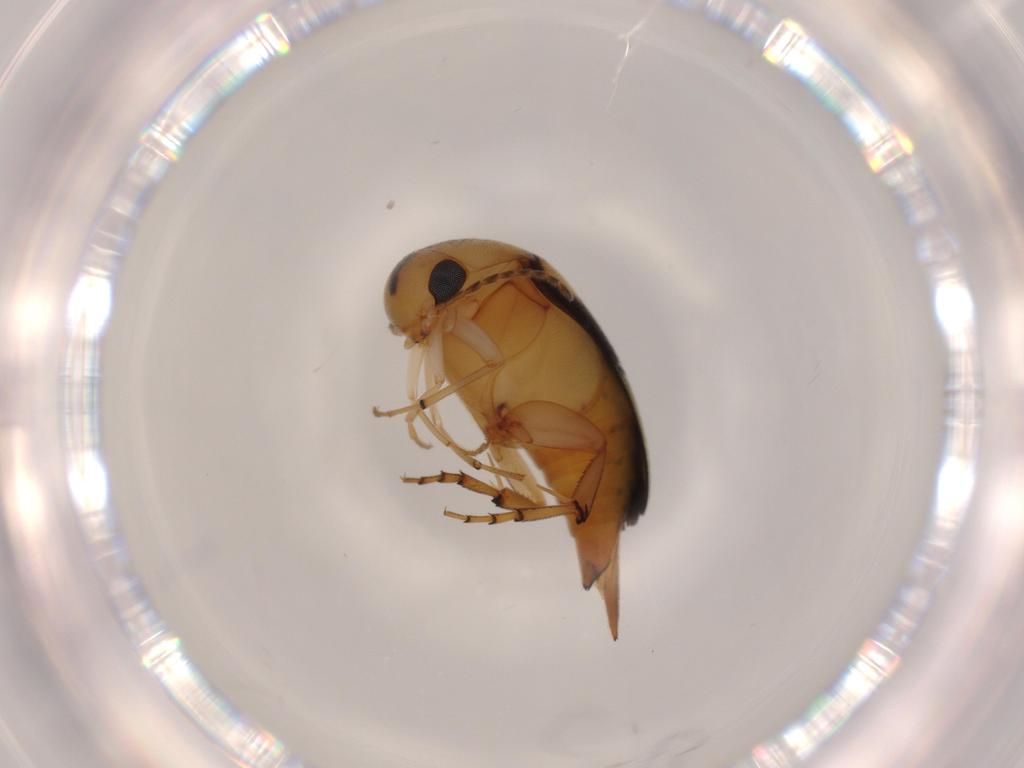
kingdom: Animalia
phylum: Arthropoda
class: Insecta
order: Coleoptera
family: Mordellidae
